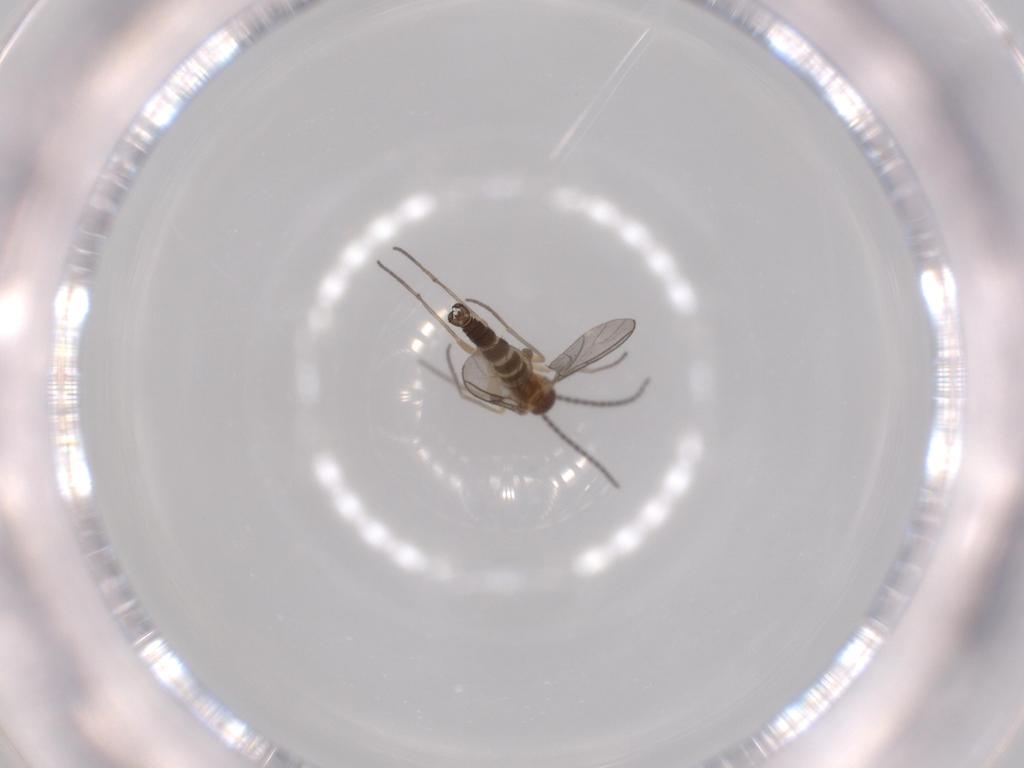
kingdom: Animalia
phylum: Arthropoda
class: Insecta
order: Diptera
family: Sciaridae
